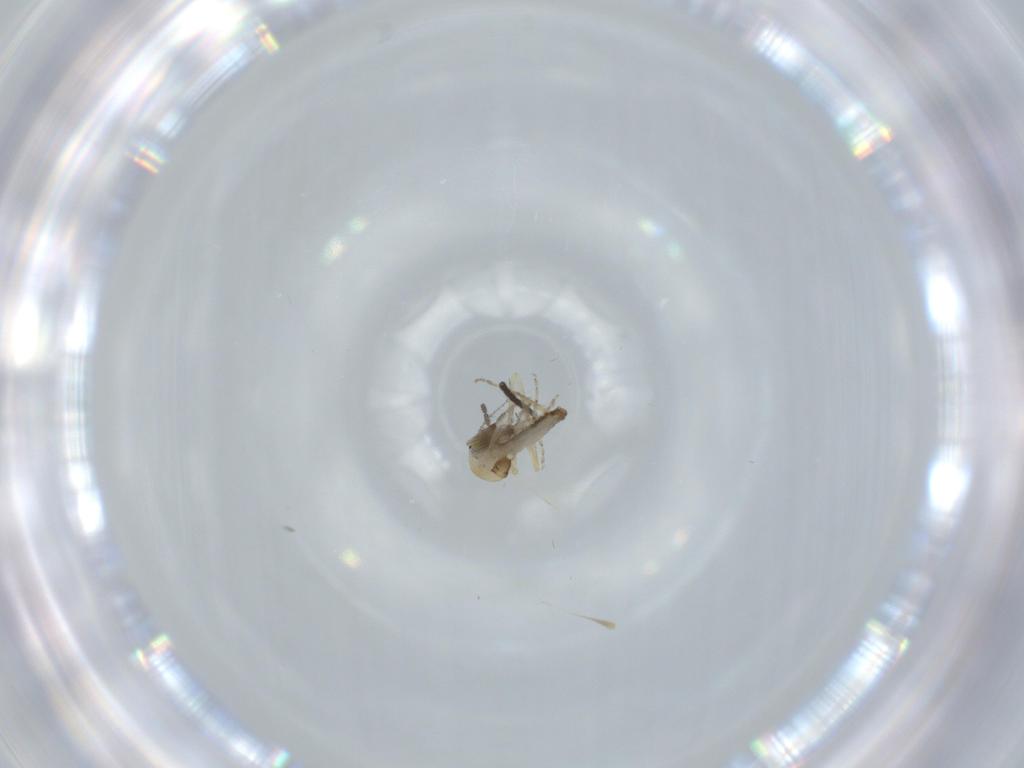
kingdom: Animalia
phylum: Arthropoda
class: Insecta
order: Diptera
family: Sciaridae
